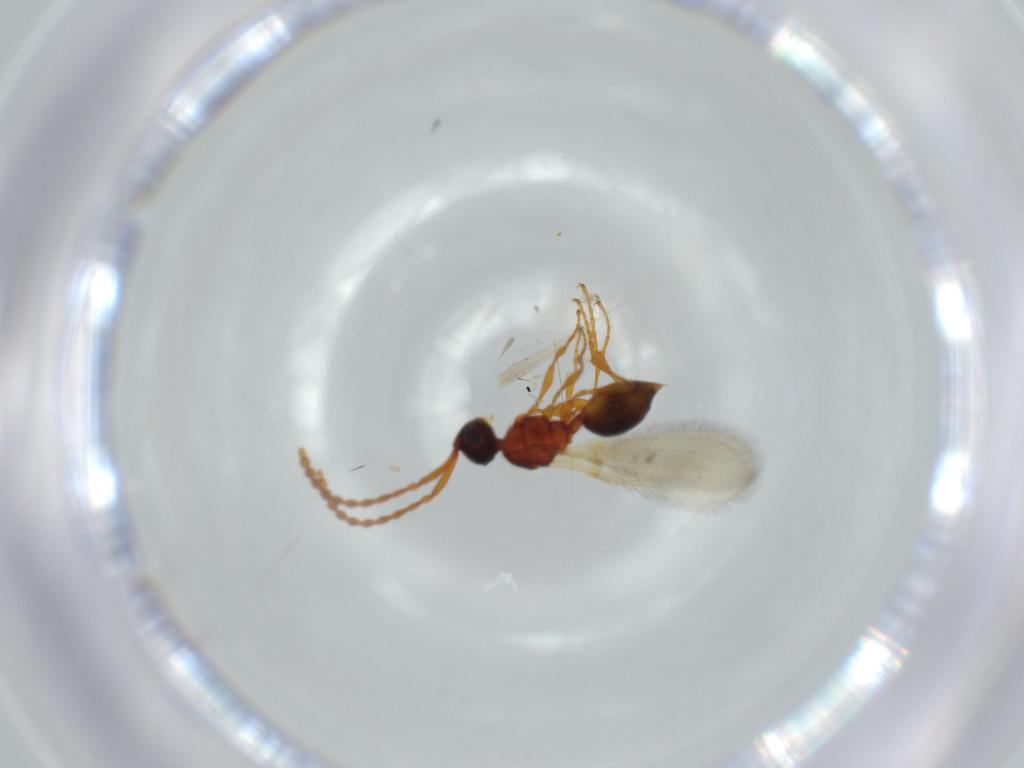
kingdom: Animalia
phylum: Arthropoda
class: Insecta
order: Hymenoptera
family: Diapriidae
